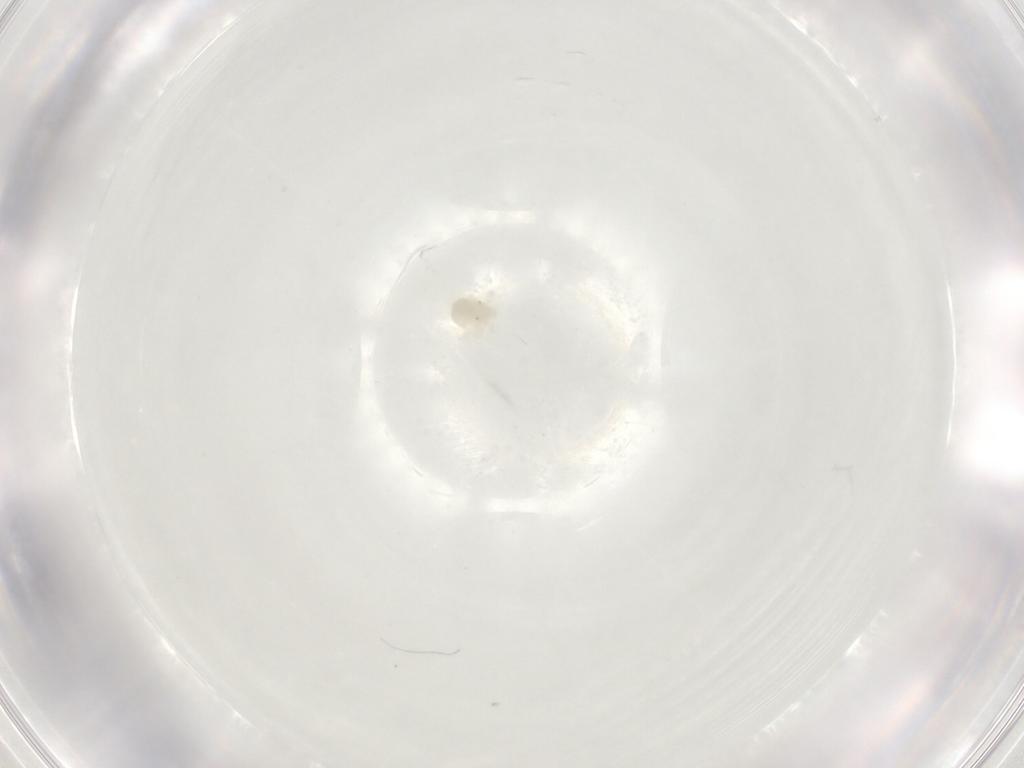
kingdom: Animalia
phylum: Arthropoda
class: Arachnida
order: Trombidiformes
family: Anystidae
